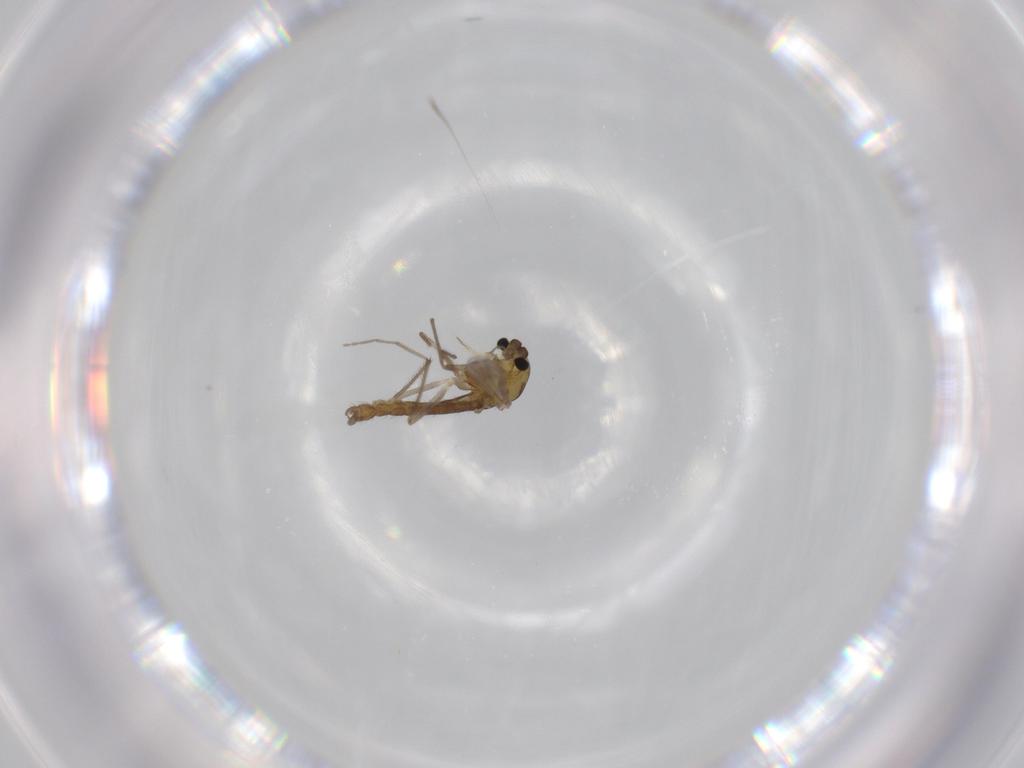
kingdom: Animalia
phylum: Arthropoda
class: Insecta
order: Diptera
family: Sciaridae
